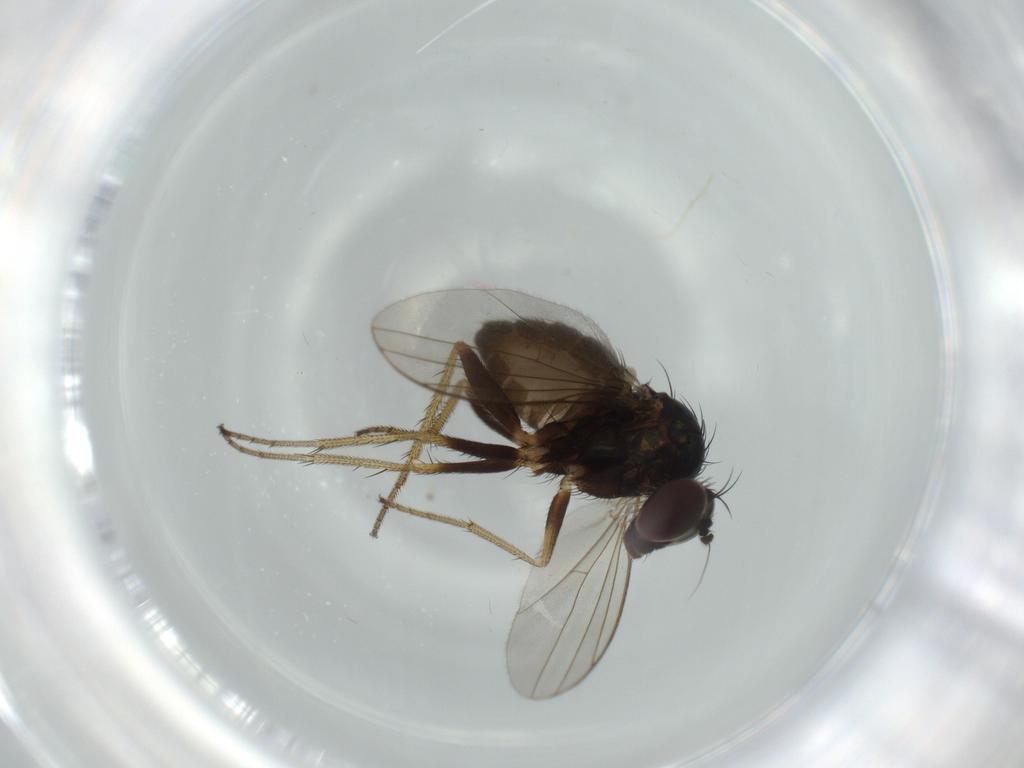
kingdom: Animalia
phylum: Arthropoda
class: Insecta
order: Diptera
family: Dolichopodidae
